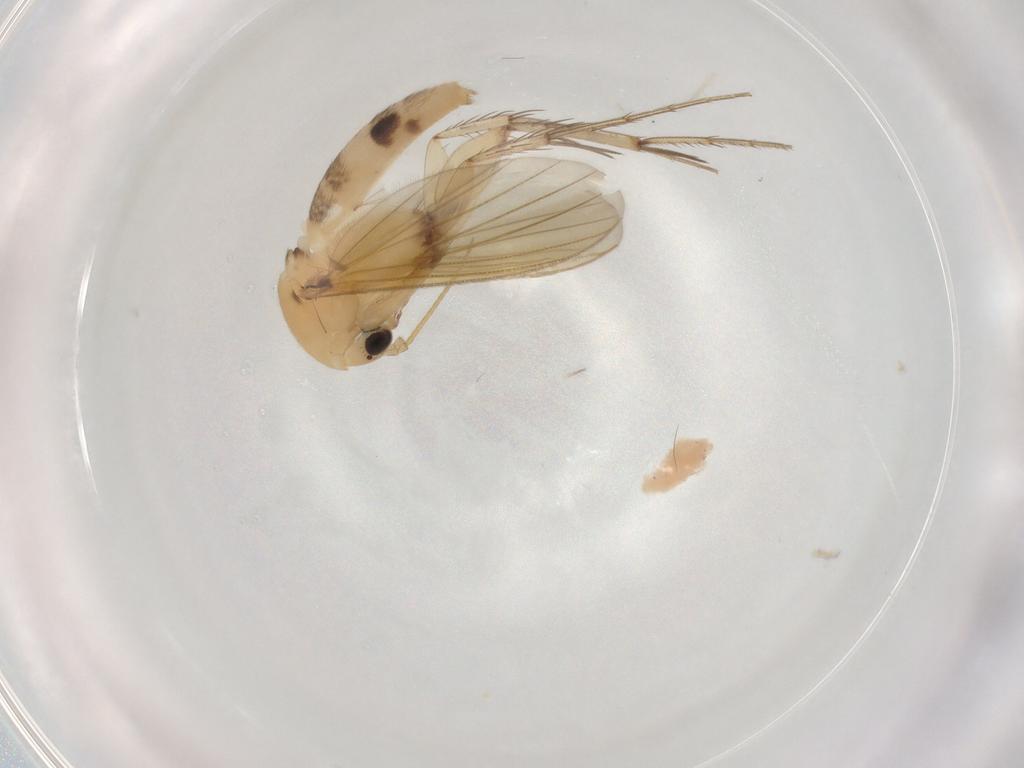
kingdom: Animalia
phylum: Arthropoda
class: Insecta
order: Diptera
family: Mycetophilidae
